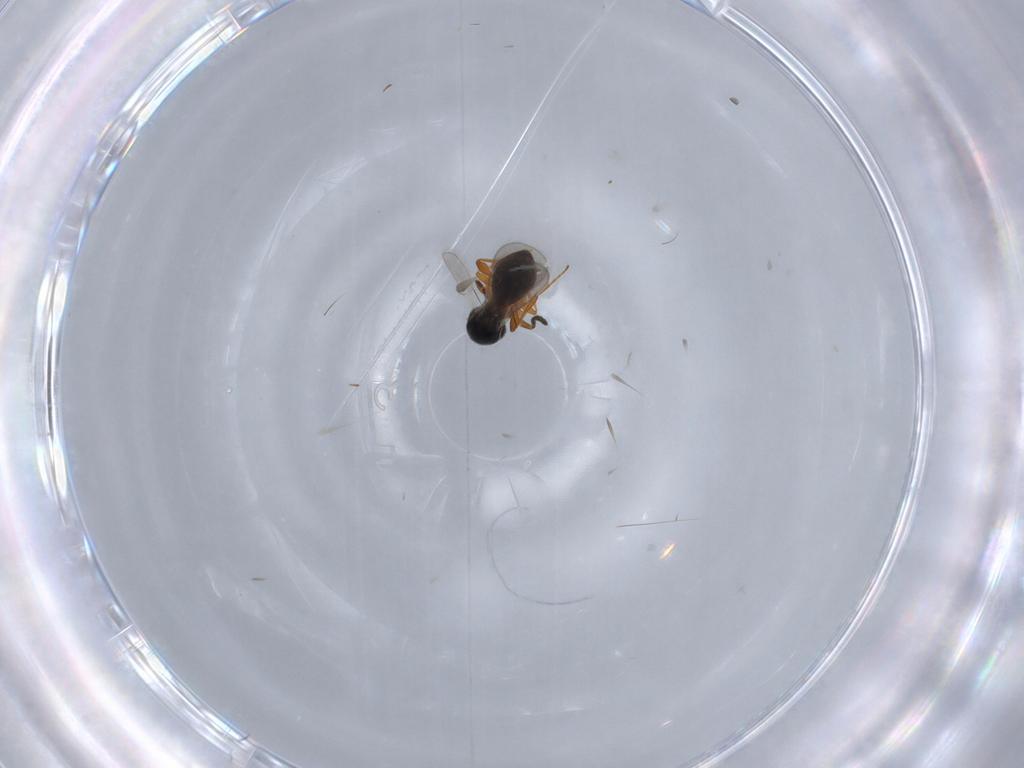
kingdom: Animalia
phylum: Arthropoda
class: Insecta
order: Hymenoptera
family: Platygastridae
